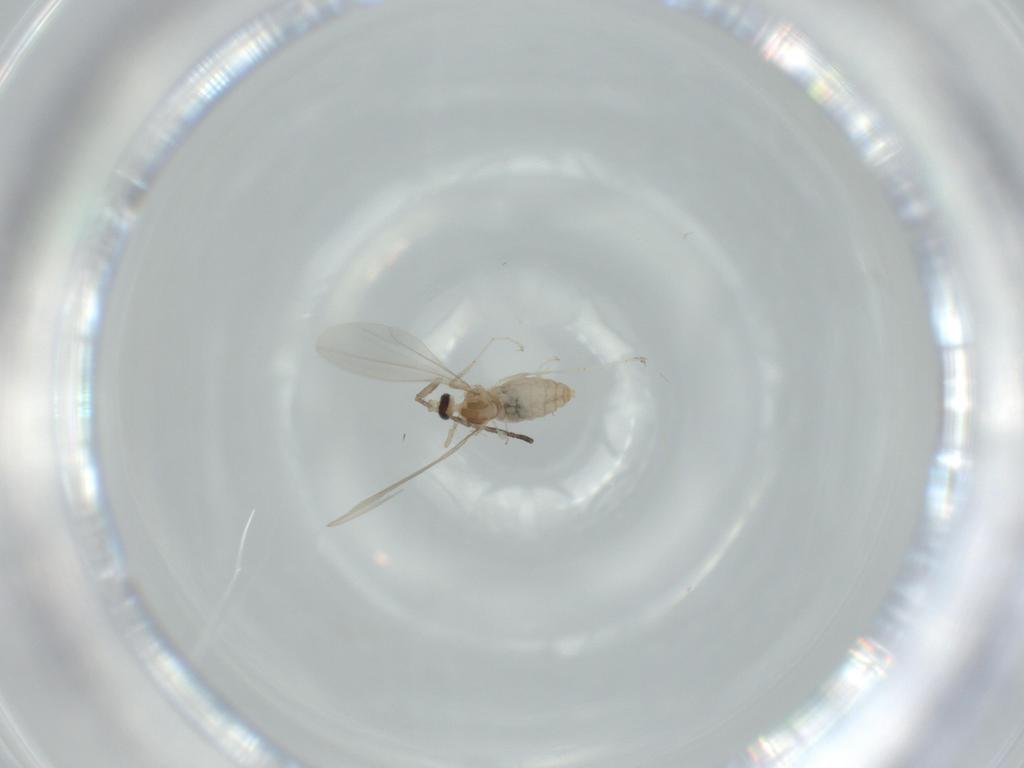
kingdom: Animalia
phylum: Arthropoda
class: Insecta
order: Diptera
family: Cecidomyiidae
